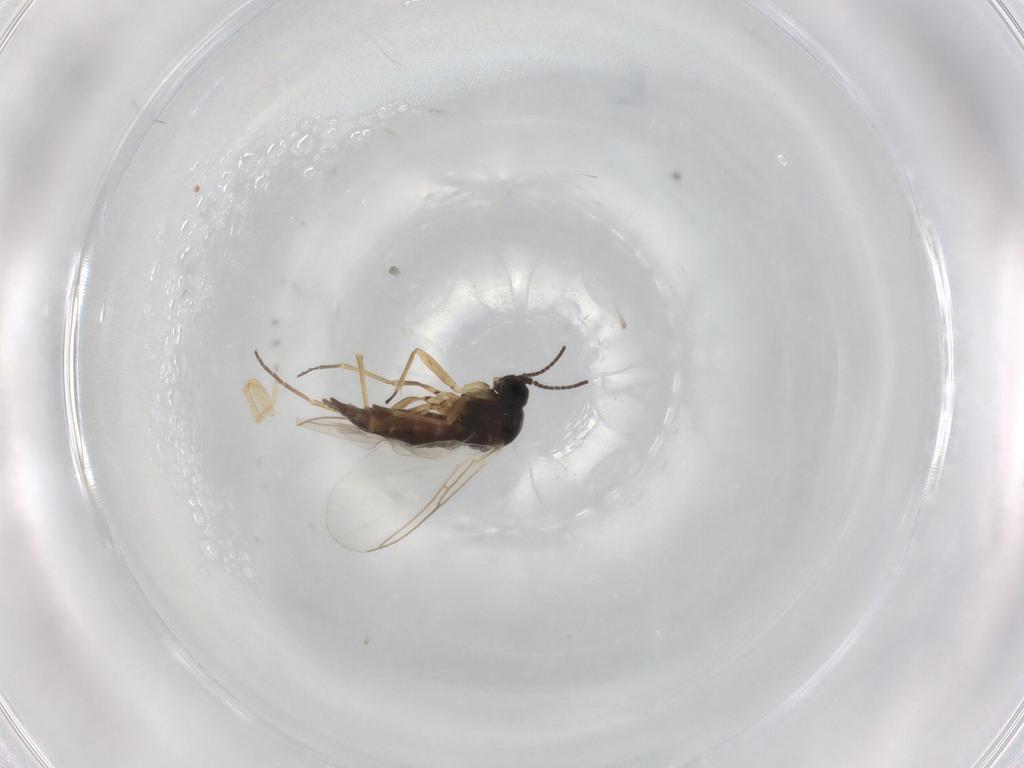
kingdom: Animalia
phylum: Arthropoda
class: Insecta
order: Diptera
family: Sciaridae
